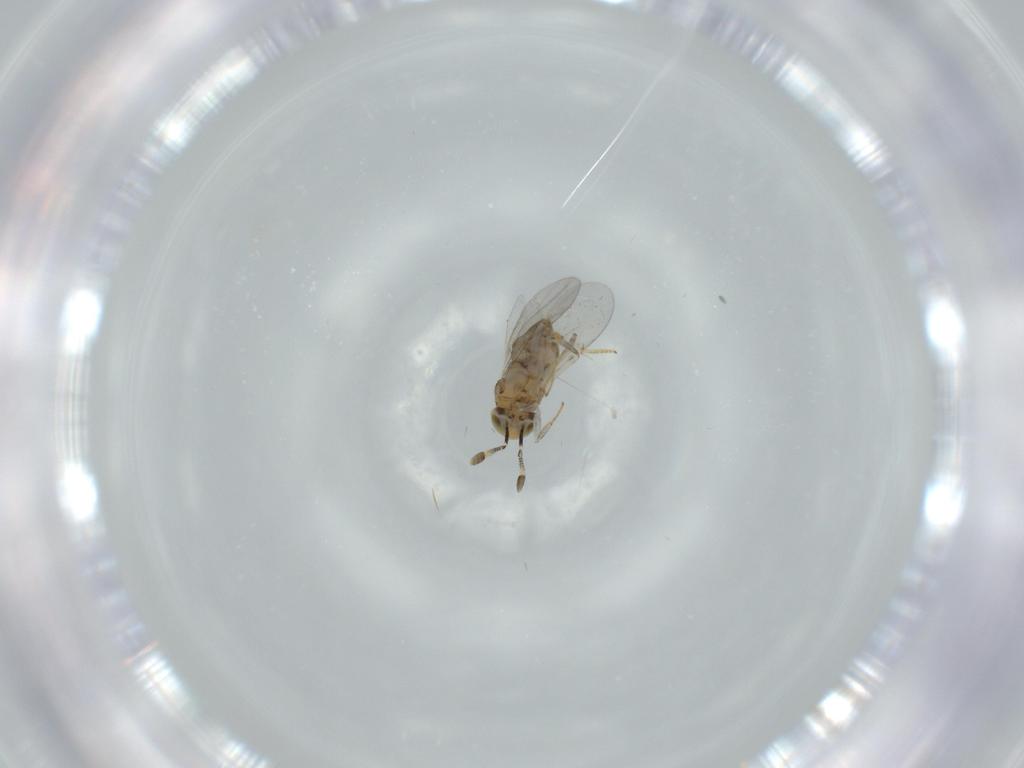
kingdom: Animalia
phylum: Arthropoda
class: Insecta
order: Hymenoptera
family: Encyrtidae
